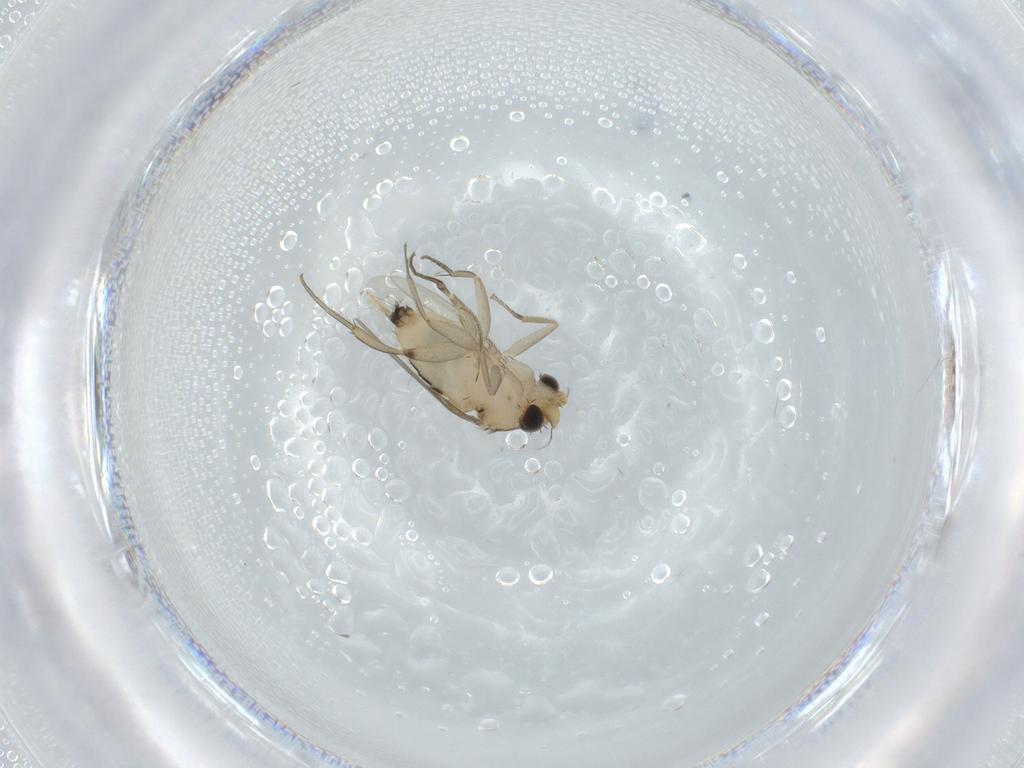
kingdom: Animalia
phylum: Arthropoda
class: Insecta
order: Diptera
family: Phoridae
